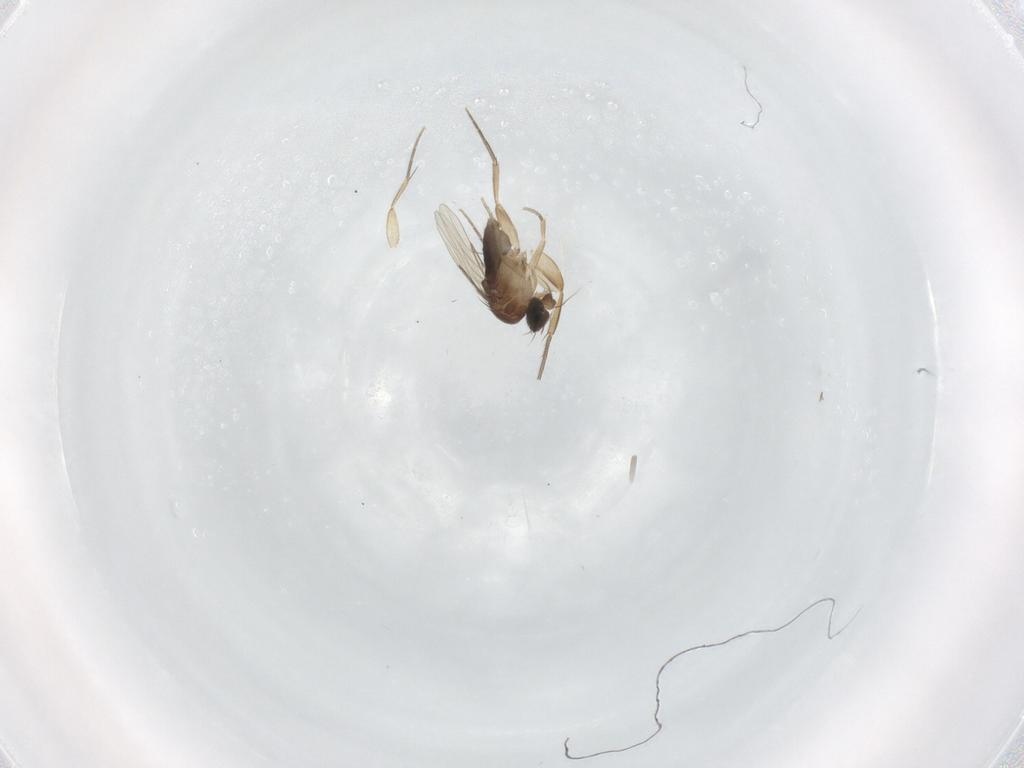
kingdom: Animalia
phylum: Arthropoda
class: Insecta
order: Diptera
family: Phoridae
